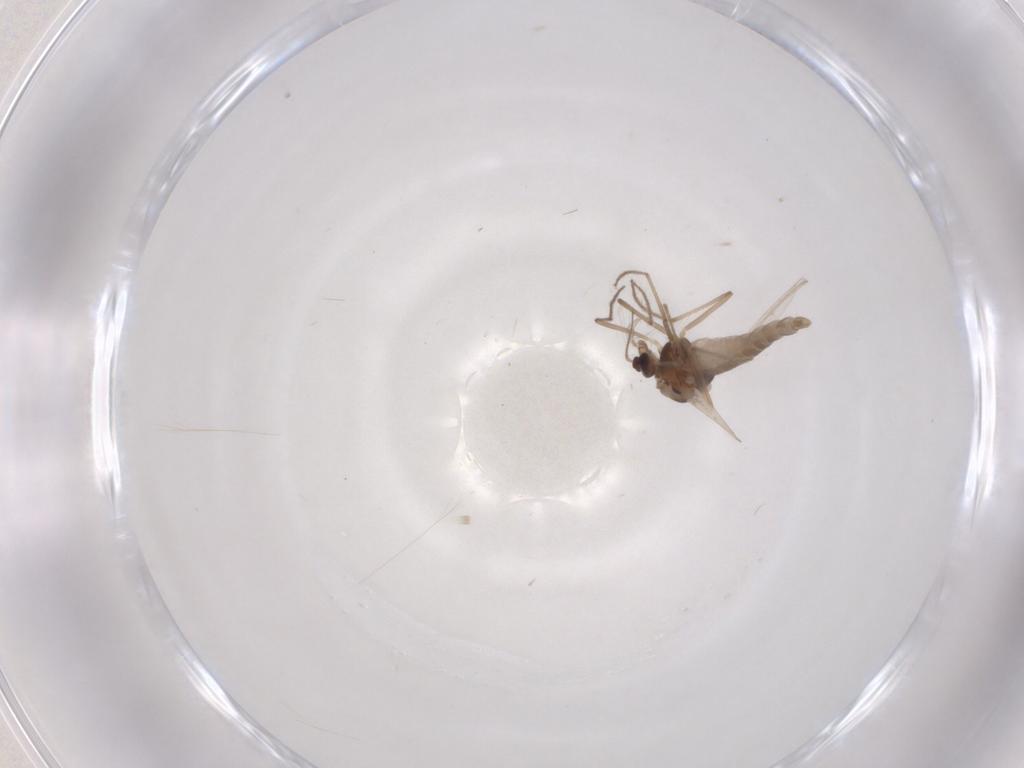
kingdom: Animalia
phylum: Arthropoda
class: Insecta
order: Diptera
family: Chironomidae
